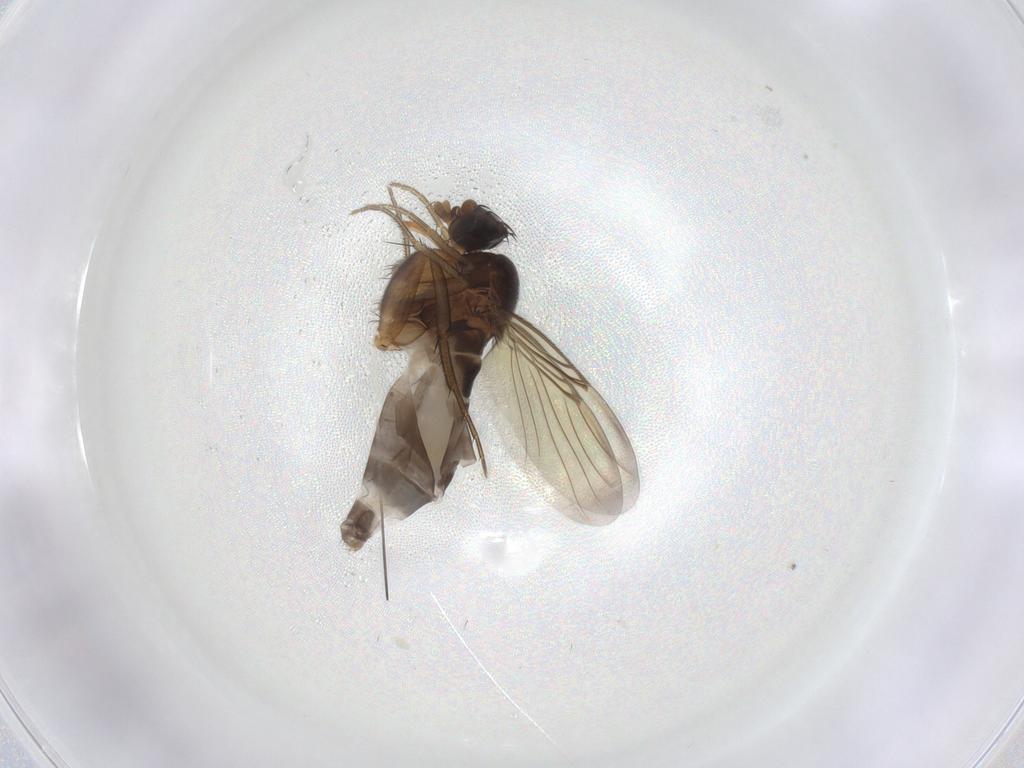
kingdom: Animalia
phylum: Arthropoda
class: Insecta
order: Diptera
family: Phoridae
